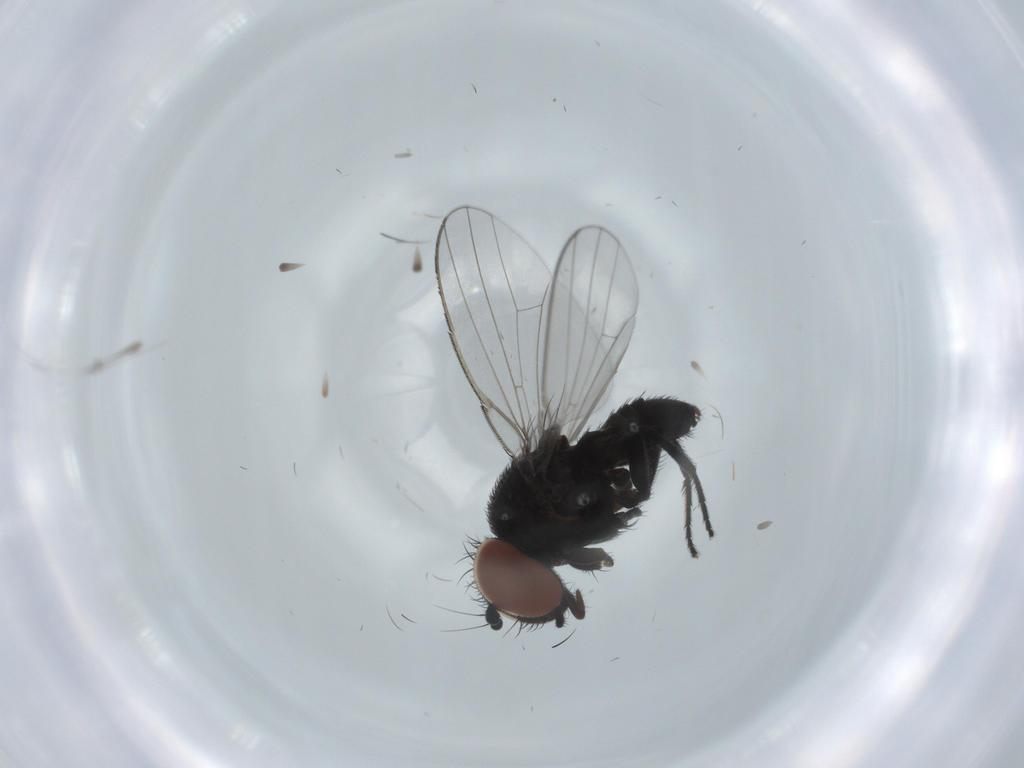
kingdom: Animalia
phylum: Arthropoda
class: Insecta
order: Diptera
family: Milichiidae
